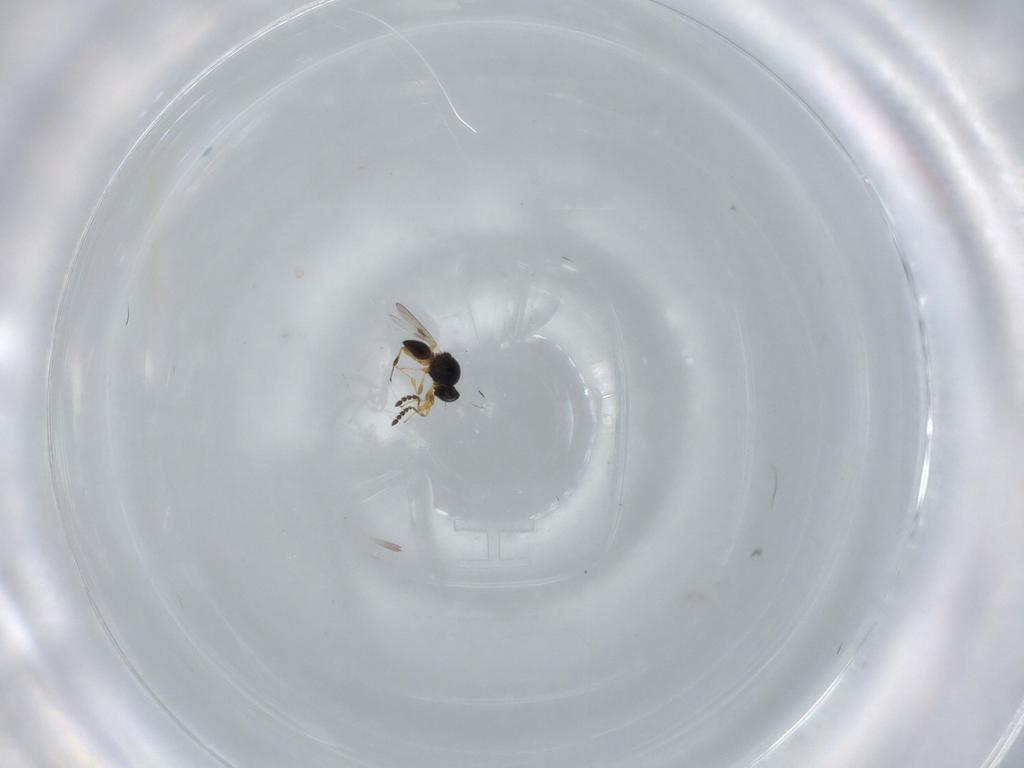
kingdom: Animalia
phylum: Arthropoda
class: Insecta
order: Hymenoptera
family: Platygastridae
